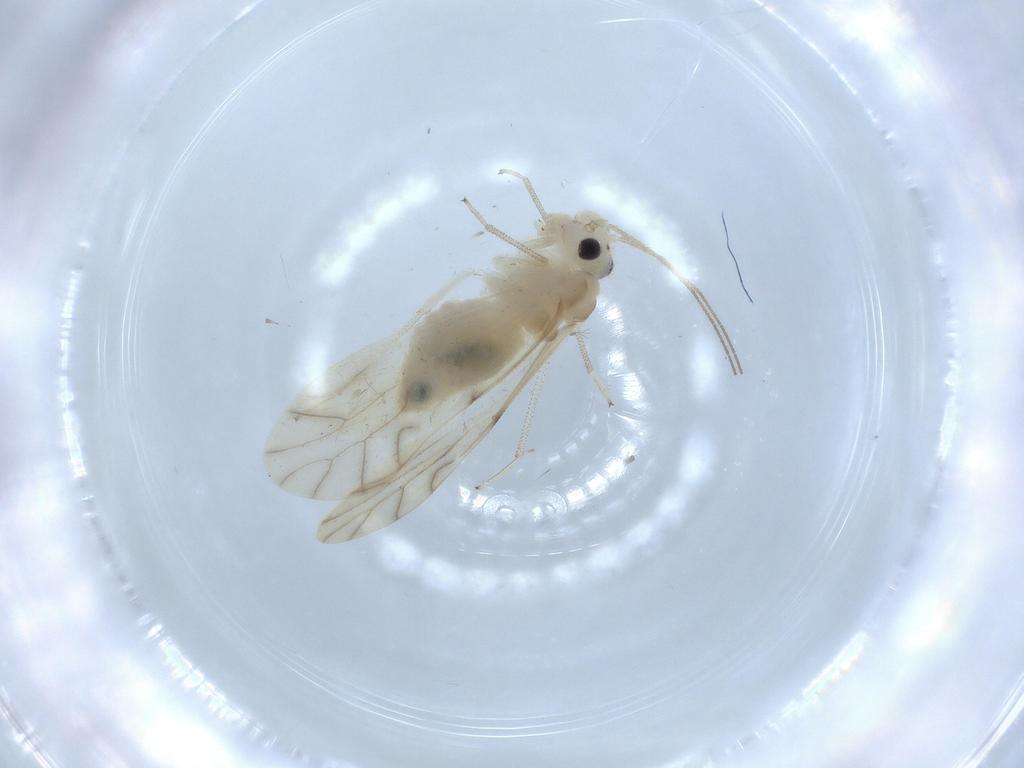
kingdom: Animalia
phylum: Arthropoda
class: Insecta
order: Psocodea
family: Caeciliusidae
